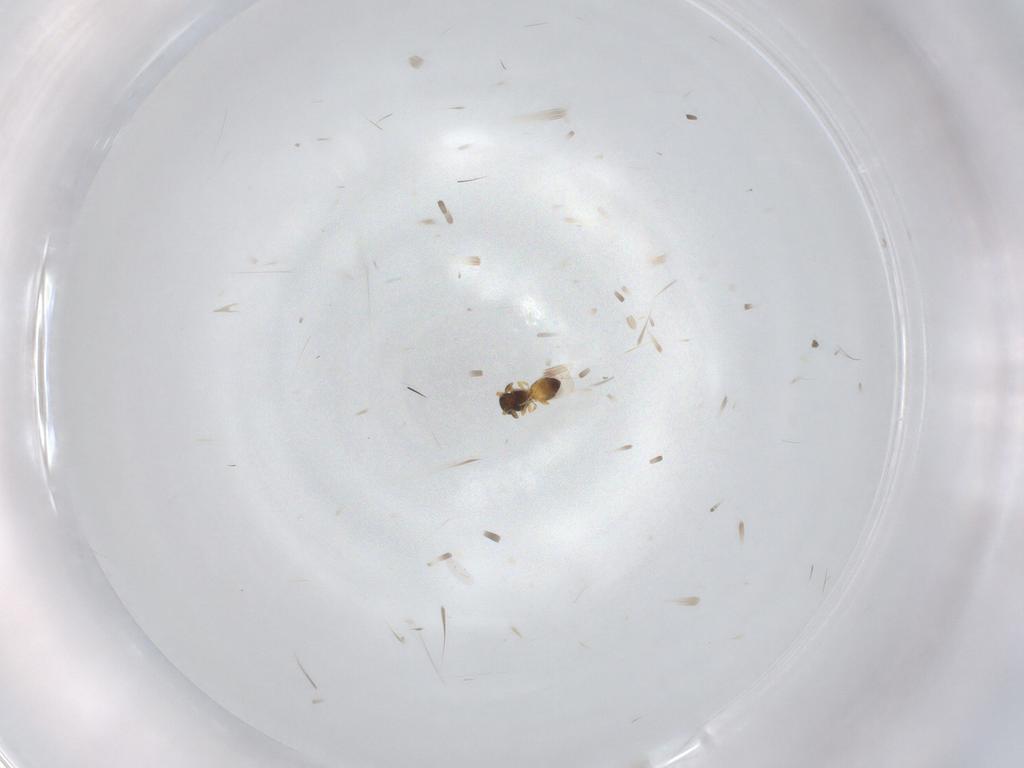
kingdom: Animalia
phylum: Arthropoda
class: Insecta
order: Hymenoptera
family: Platygastridae
